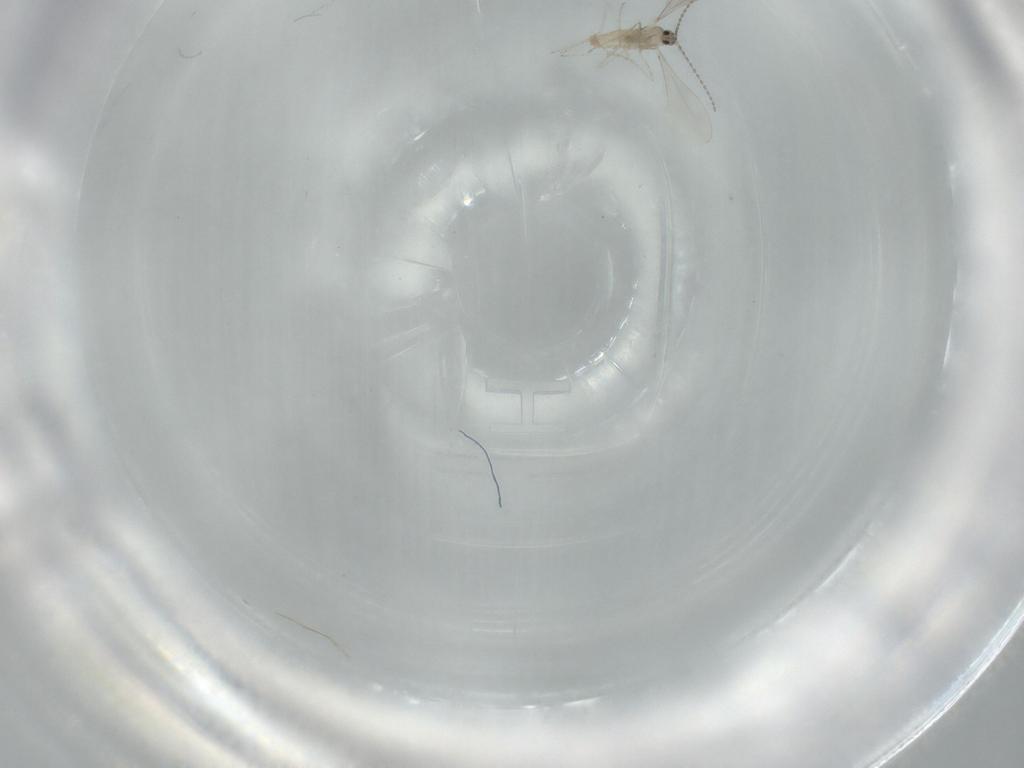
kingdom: Animalia
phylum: Arthropoda
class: Insecta
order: Diptera
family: Cecidomyiidae
